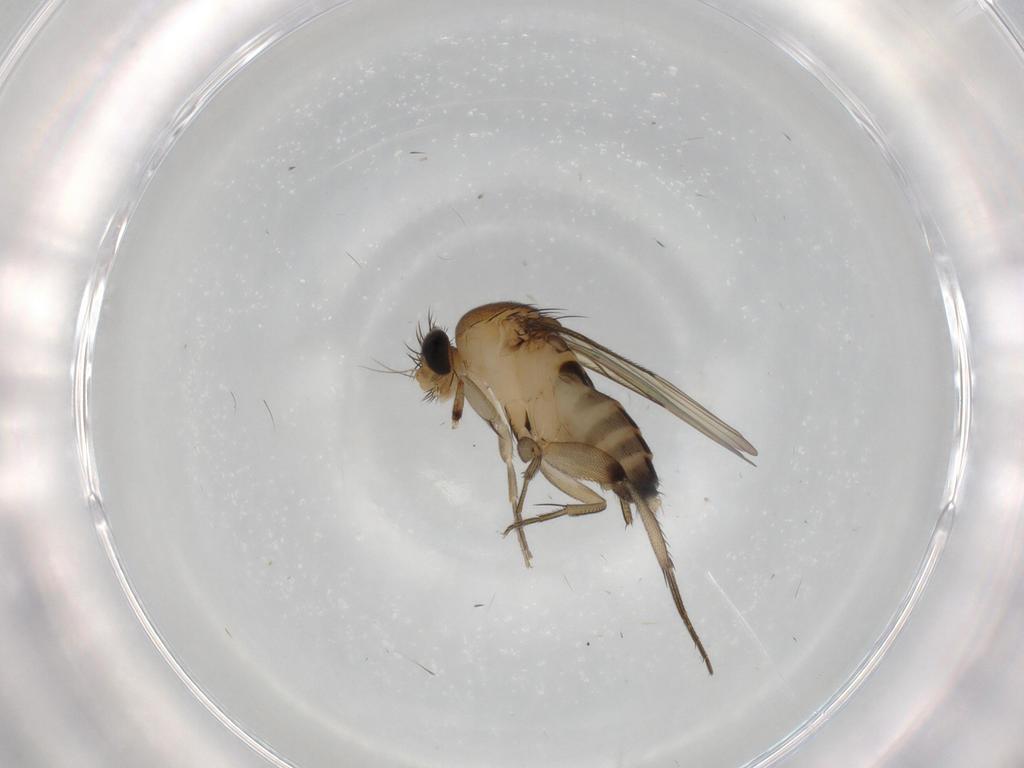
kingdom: Animalia
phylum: Arthropoda
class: Insecta
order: Diptera
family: Phoridae
